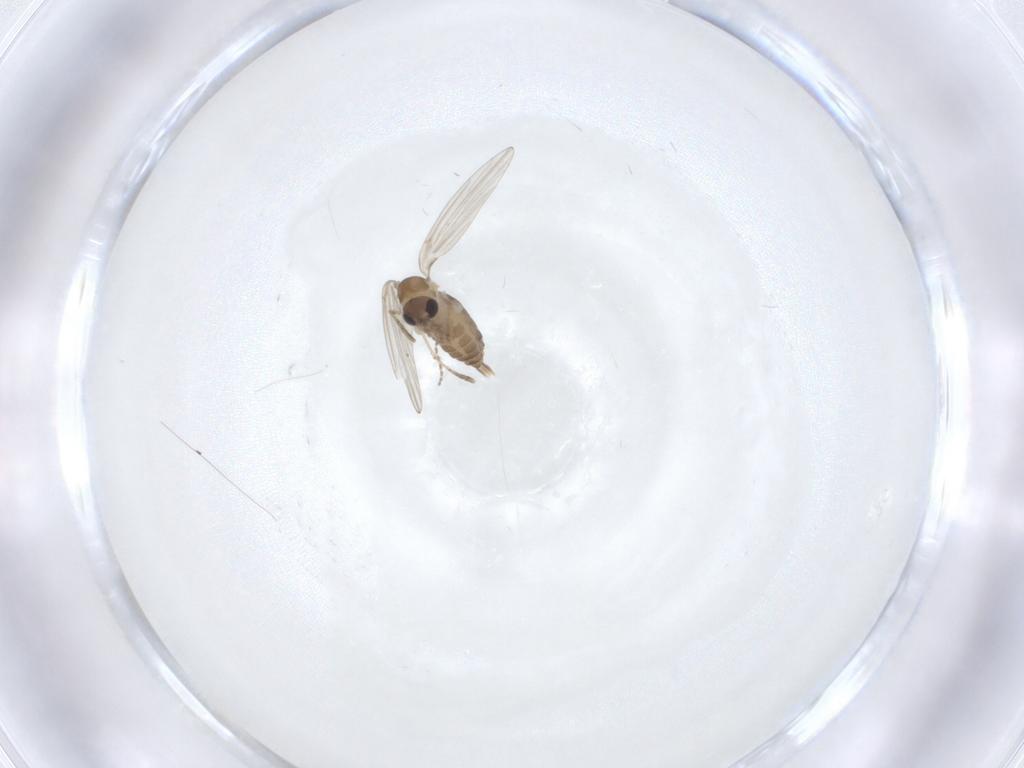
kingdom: Animalia
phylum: Arthropoda
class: Insecta
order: Diptera
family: Psychodidae
